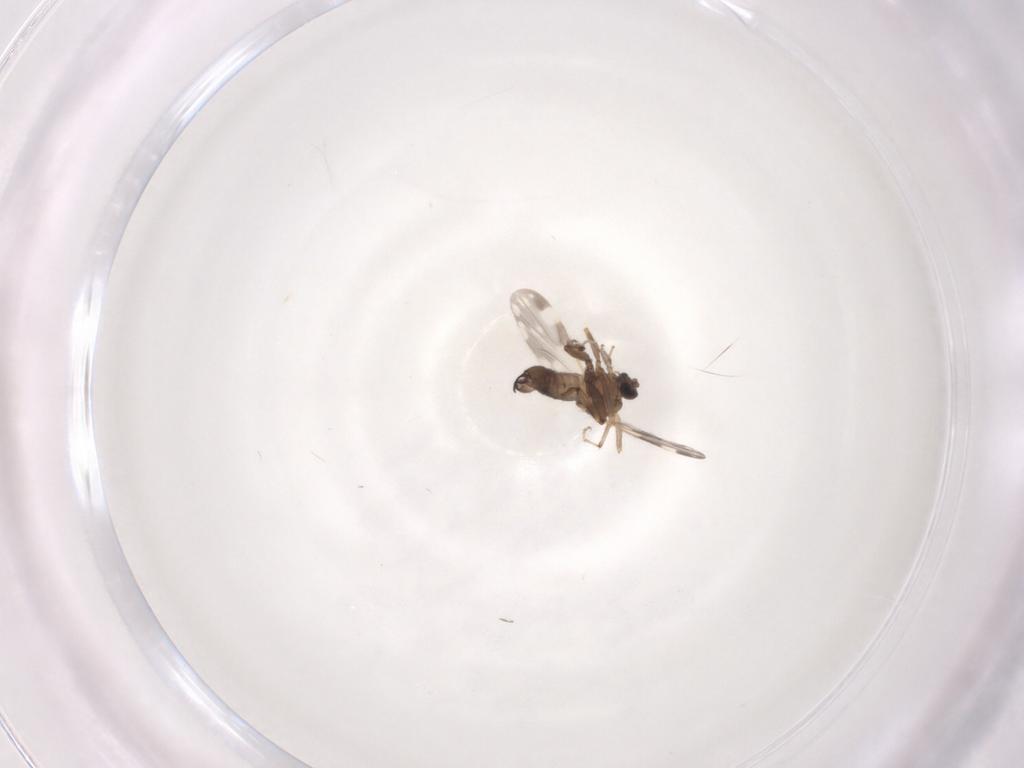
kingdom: Animalia
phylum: Arthropoda
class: Insecta
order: Diptera
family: Ceratopogonidae
